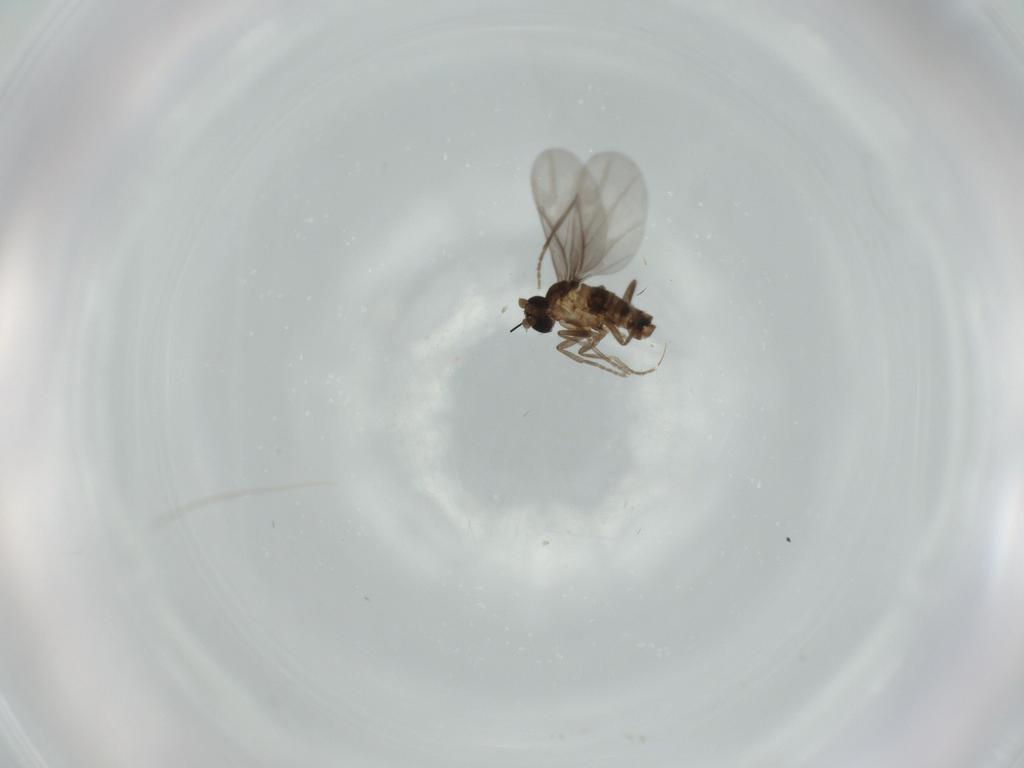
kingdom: Animalia
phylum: Arthropoda
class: Insecta
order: Diptera
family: Phoridae
